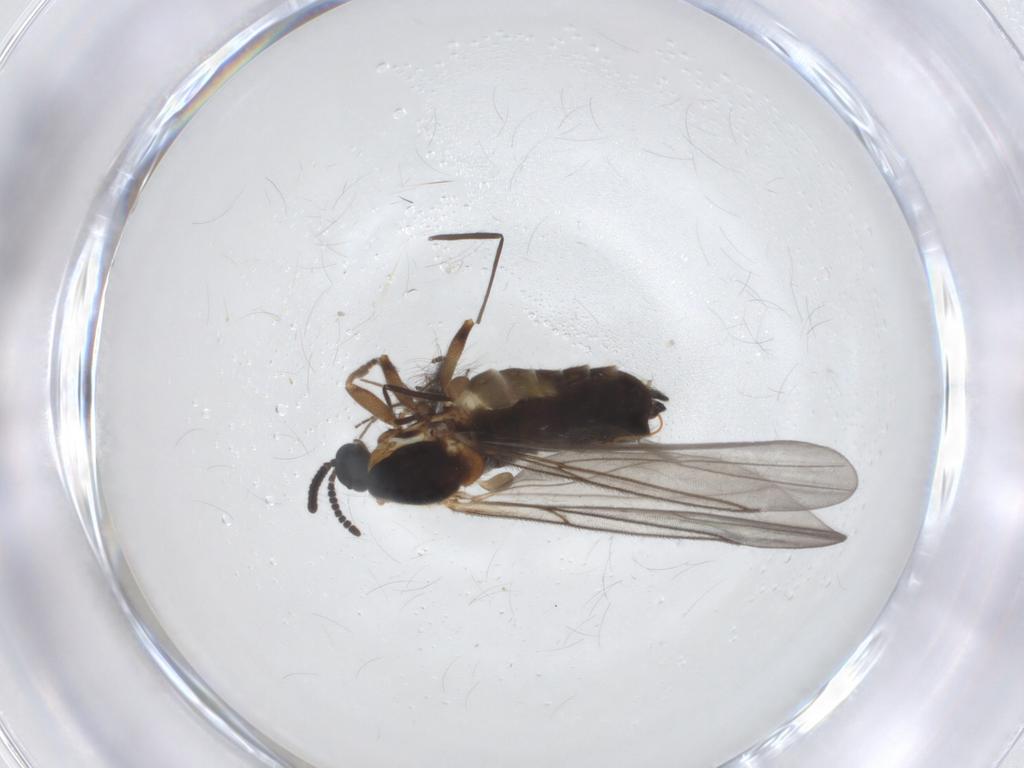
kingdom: Animalia
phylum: Arthropoda
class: Insecta
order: Diptera
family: Scatopsidae
